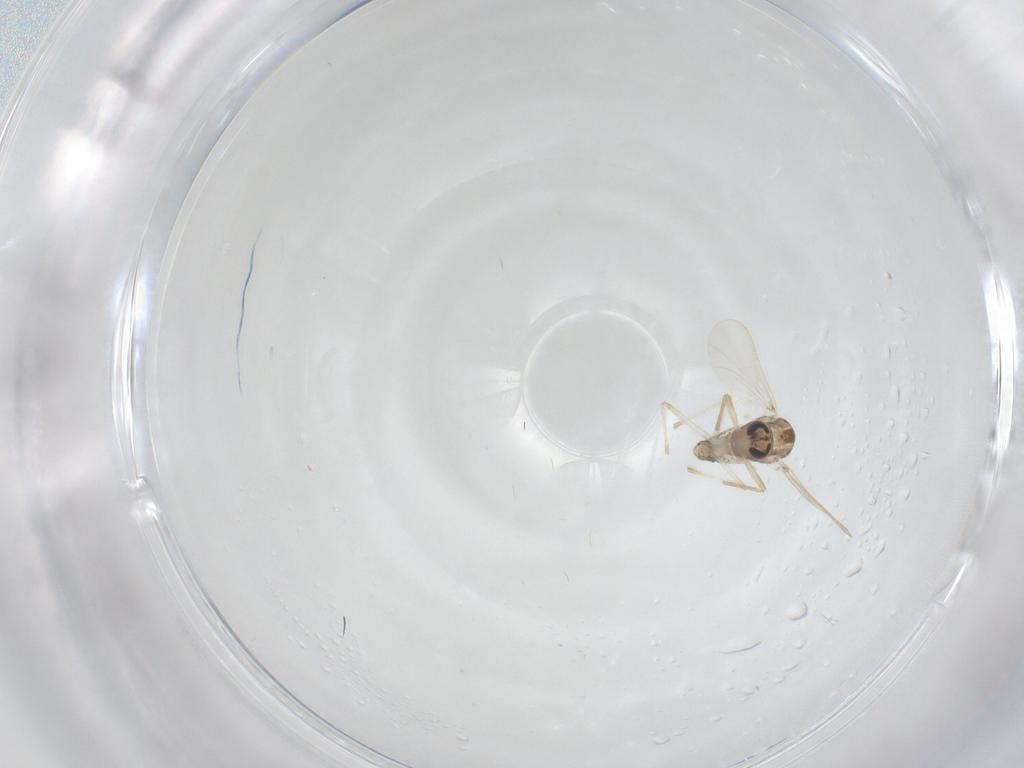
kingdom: Animalia
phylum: Arthropoda
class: Insecta
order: Diptera
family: Chironomidae
